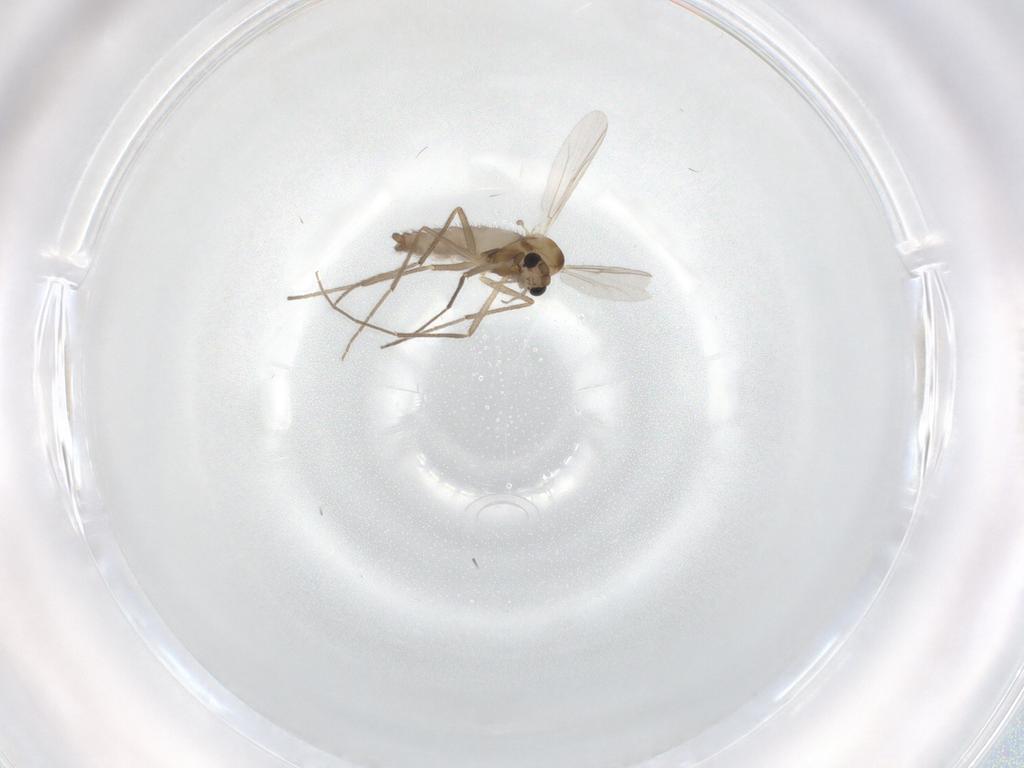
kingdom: Animalia
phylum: Arthropoda
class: Insecta
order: Diptera
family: Chironomidae
